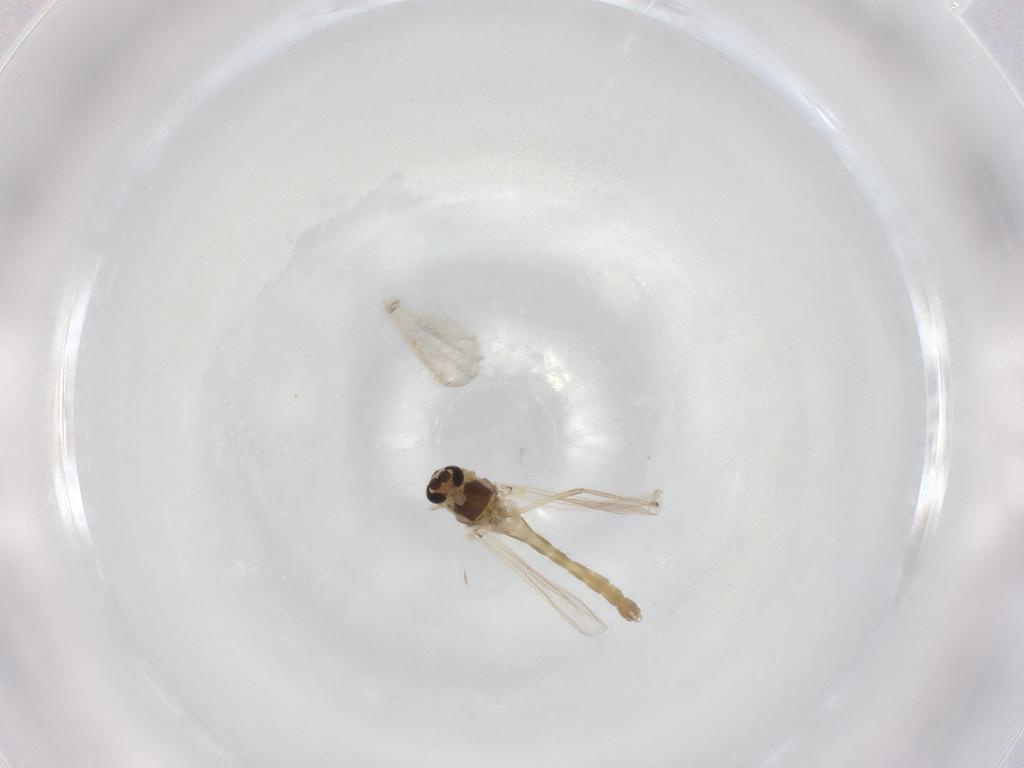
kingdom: Animalia
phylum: Arthropoda
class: Insecta
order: Diptera
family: Chironomidae
